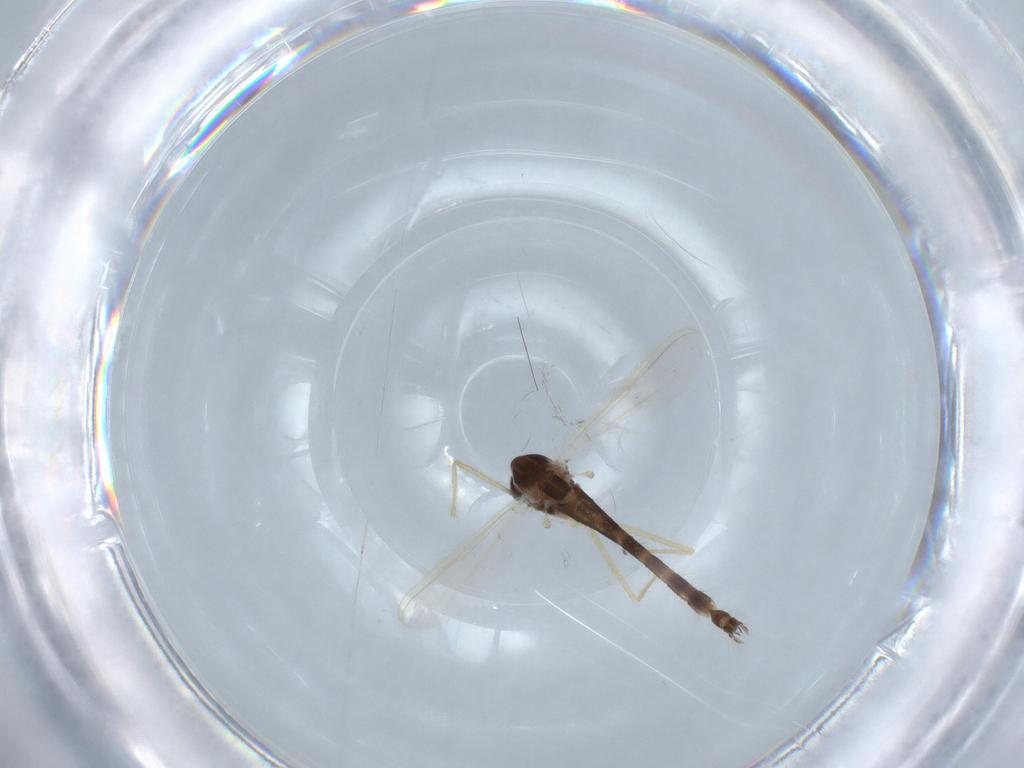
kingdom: Animalia
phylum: Arthropoda
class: Insecta
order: Diptera
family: Chironomidae
